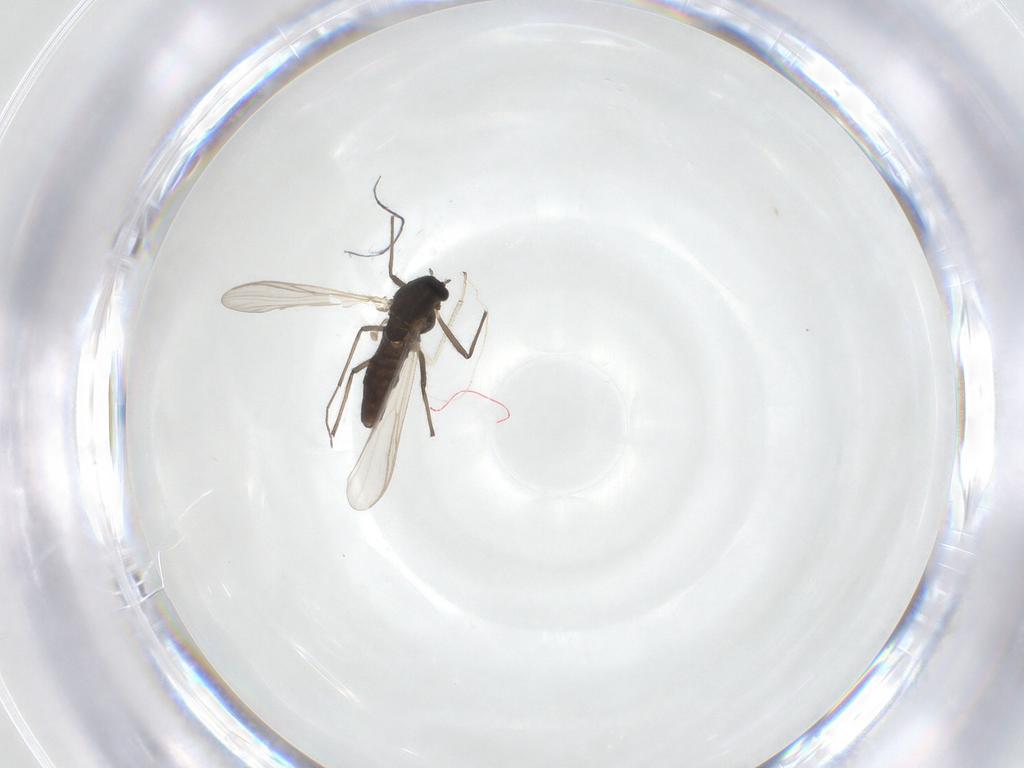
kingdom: Animalia
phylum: Arthropoda
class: Insecta
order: Diptera
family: Chironomidae
